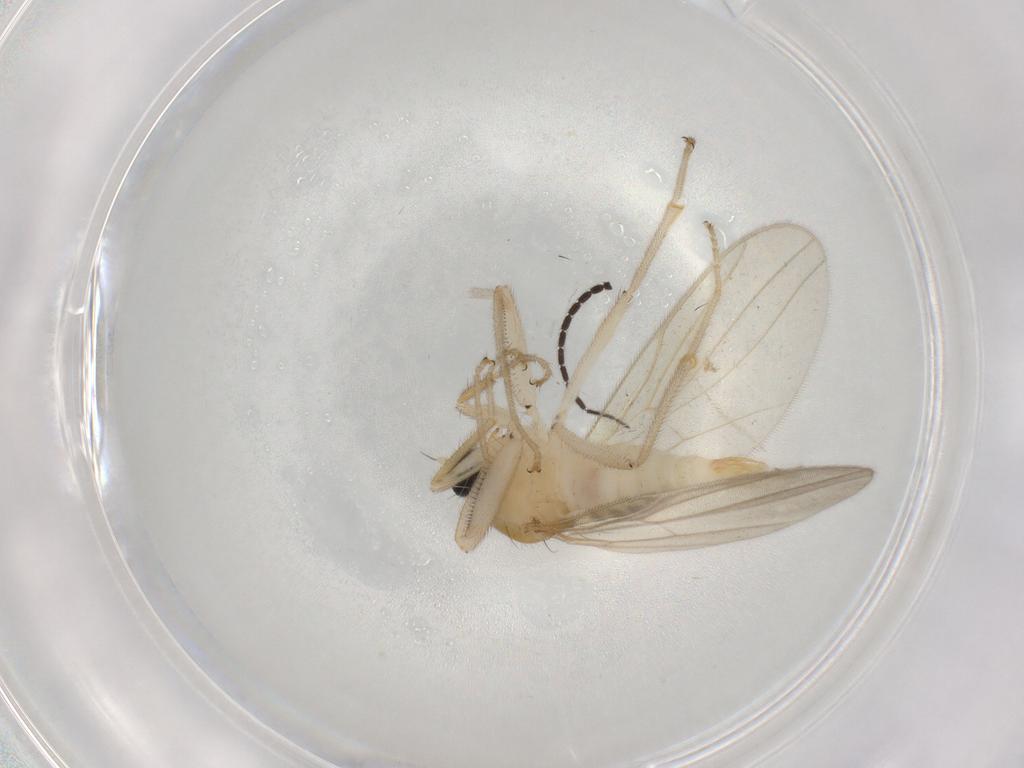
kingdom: Animalia
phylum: Arthropoda
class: Insecta
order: Diptera
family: Hybotidae
